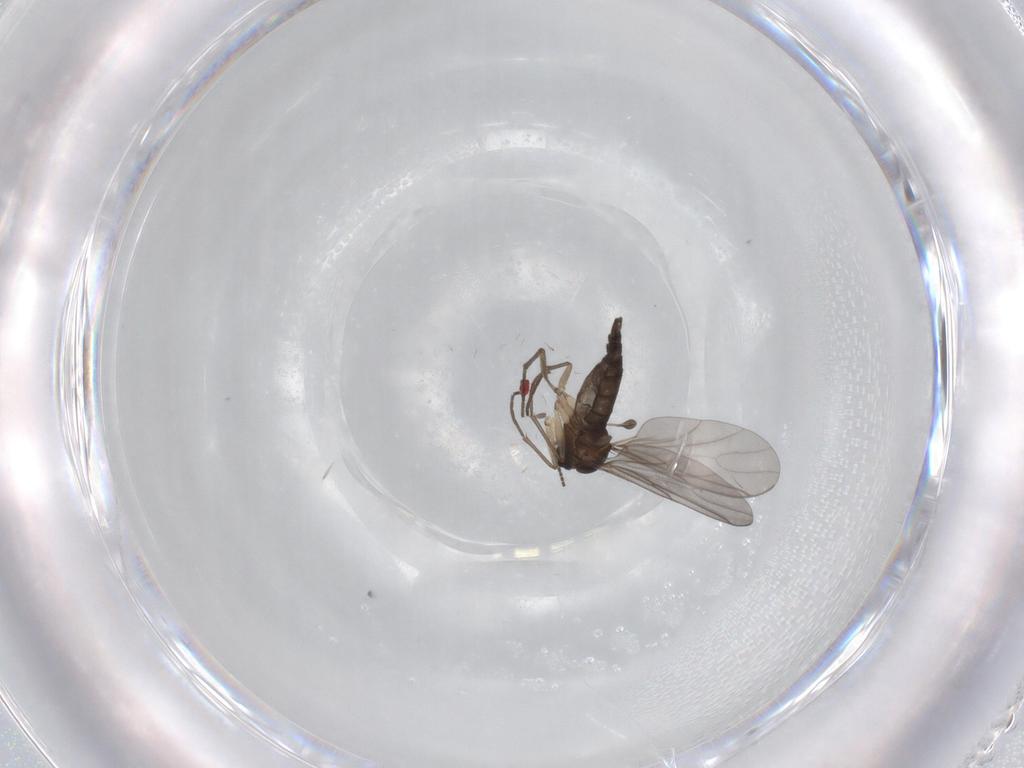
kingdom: Animalia
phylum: Arthropoda
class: Insecta
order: Diptera
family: Sciaridae
